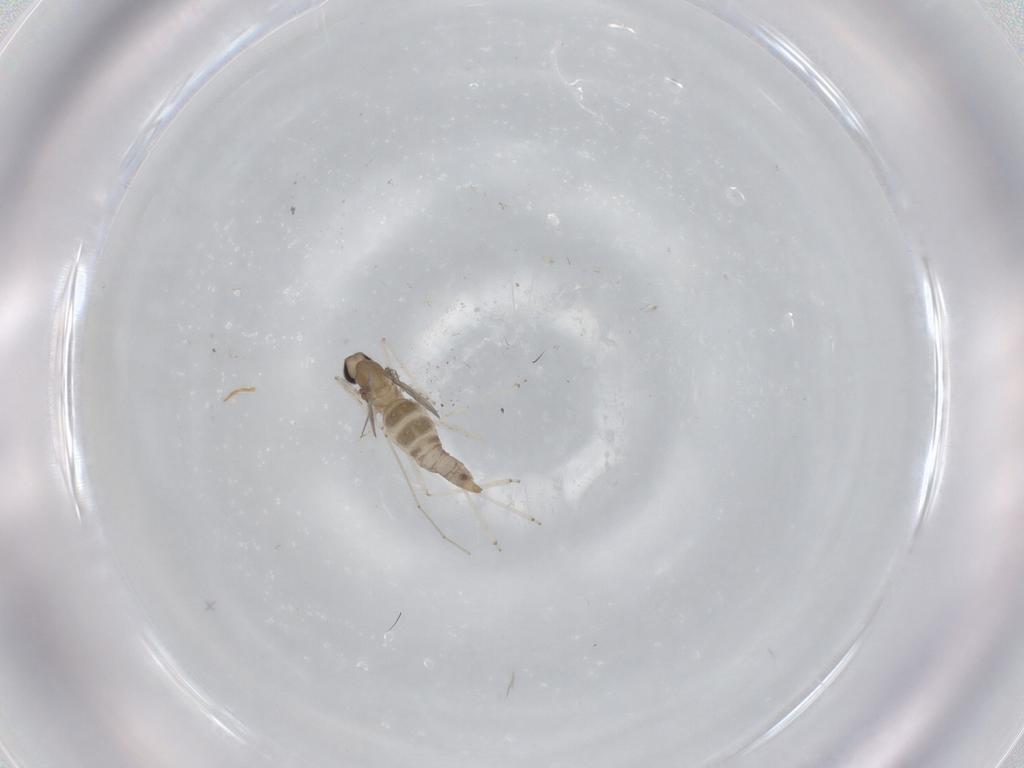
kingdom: Animalia
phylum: Arthropoda
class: Insecta
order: Diptera
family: Cecidomyiidae
